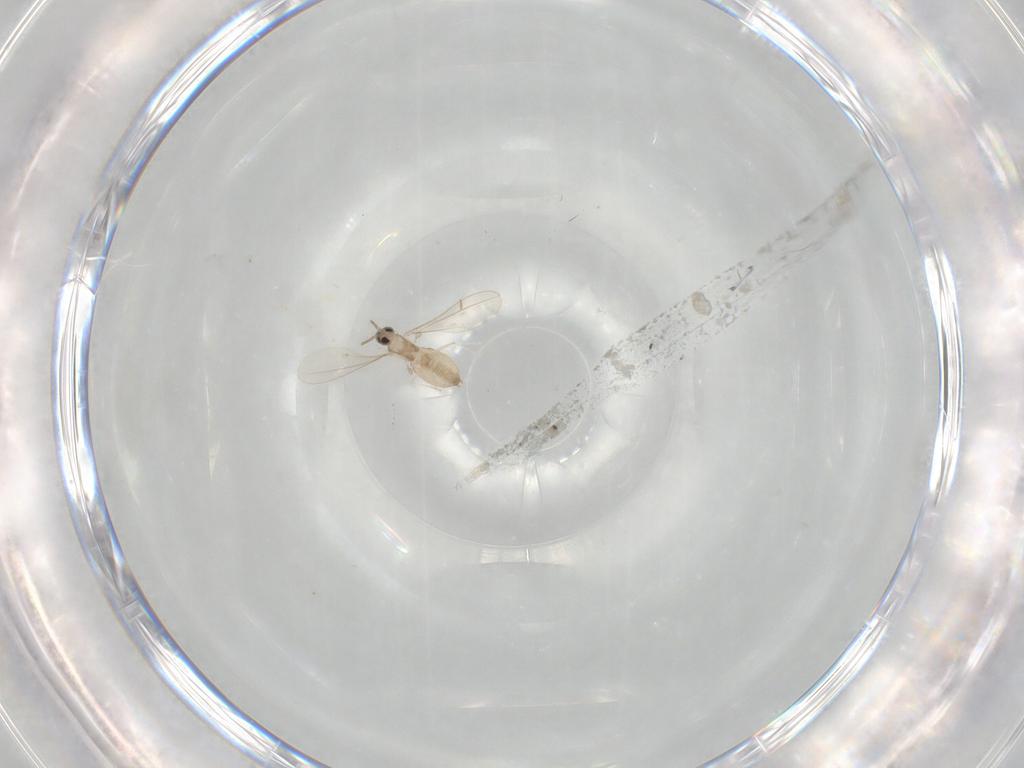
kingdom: Animalia
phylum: Arthropoda
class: Insecta
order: Diptera
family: Cecidomyiidae
